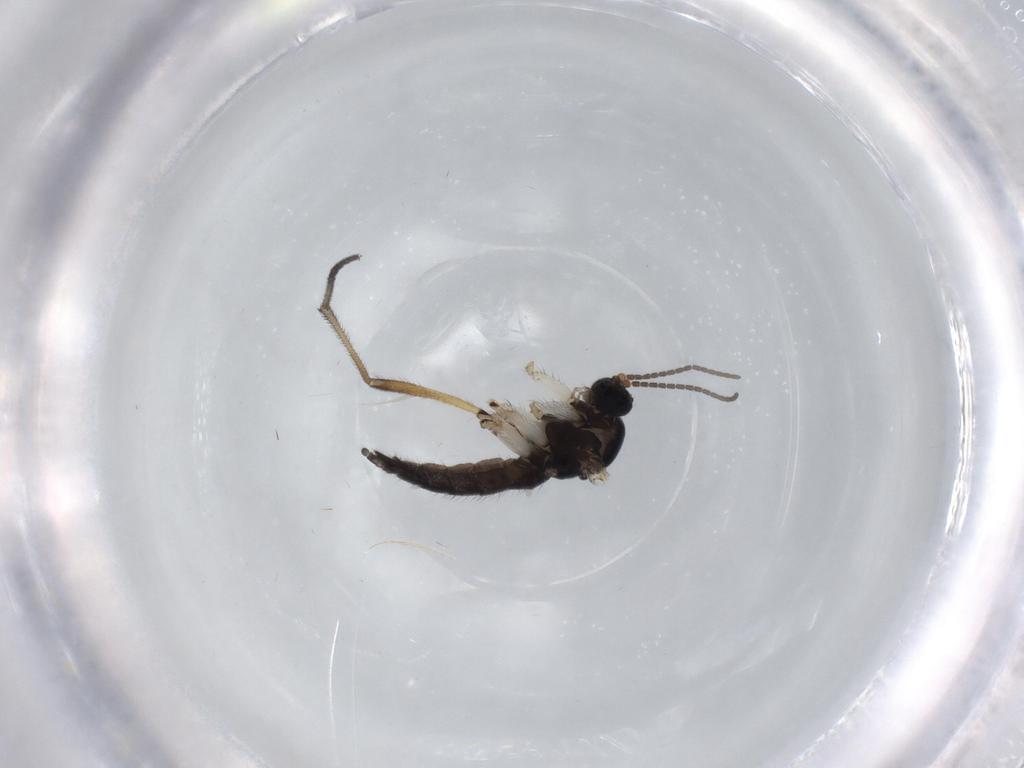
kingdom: Animalia
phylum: Arthropoda
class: Insecta
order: Diptera
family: Sciaridae
